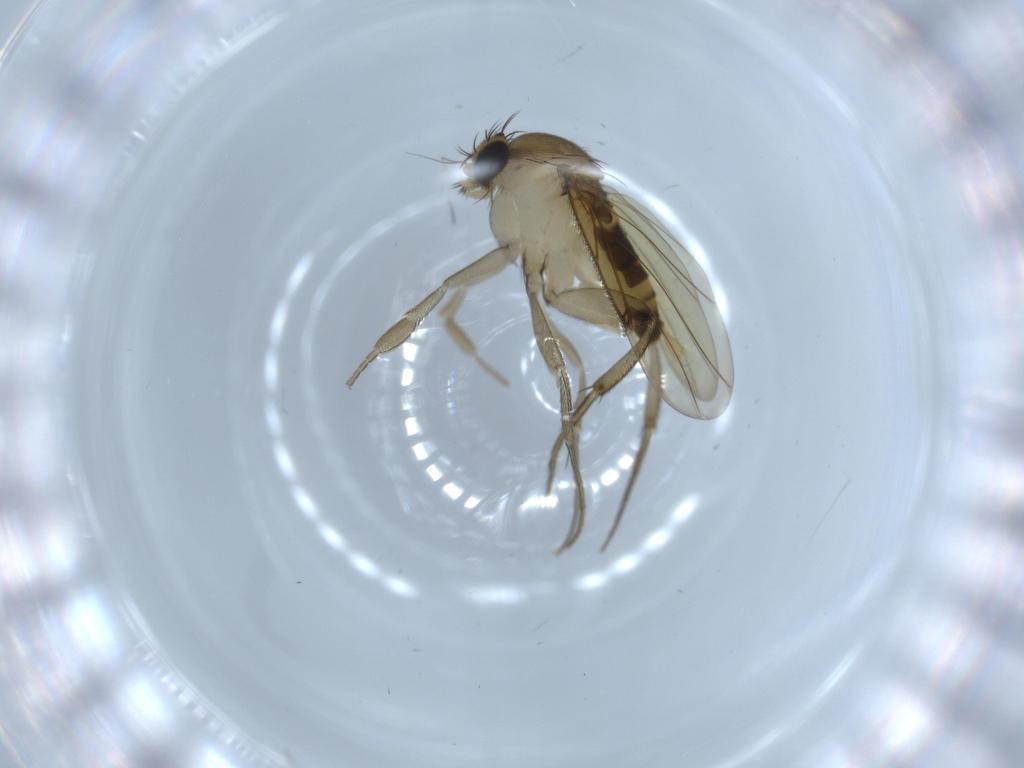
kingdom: Animalia
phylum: Arthropoda
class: Insecta
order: Diptera
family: Phoridae
